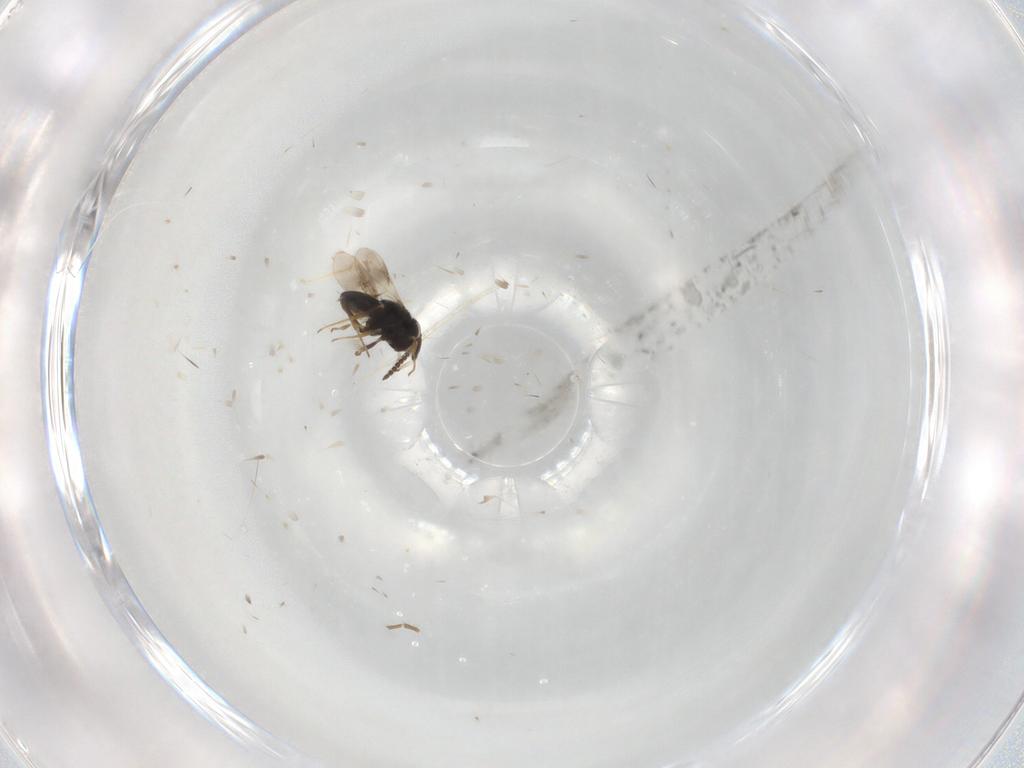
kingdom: Animalia
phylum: Arthropoda
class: Insecta
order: Hymenoptera
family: Scelionidae
